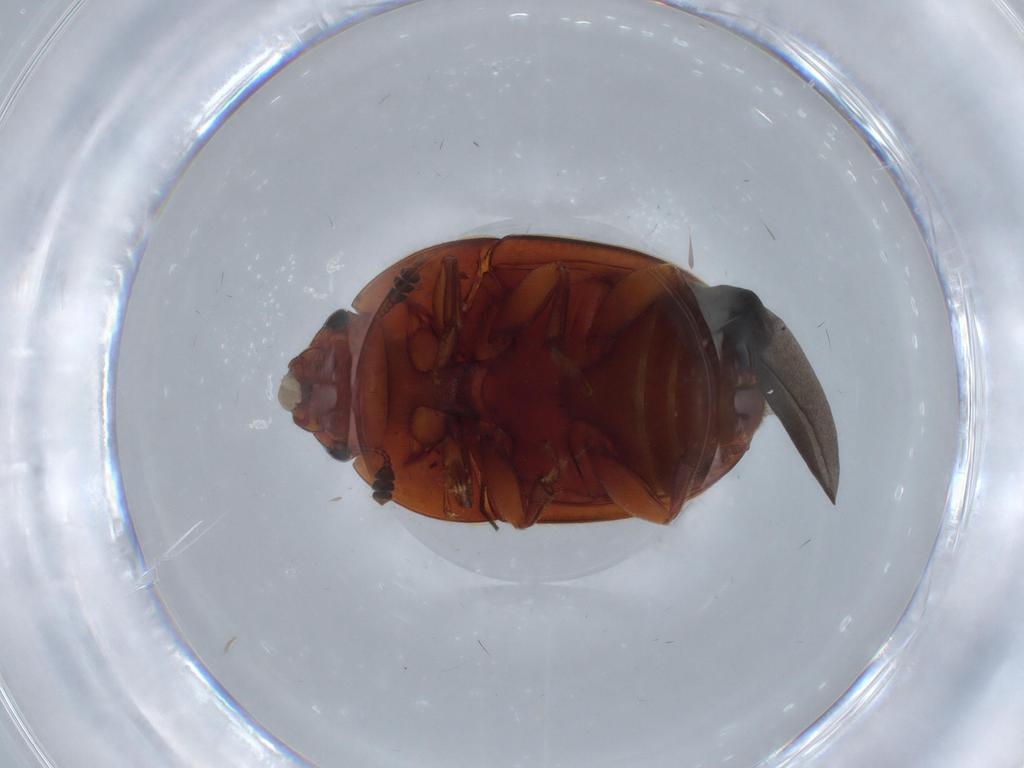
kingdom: Animalia
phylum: Arthropoda
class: Insecta
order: Coleoptera
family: Nitidulidae
